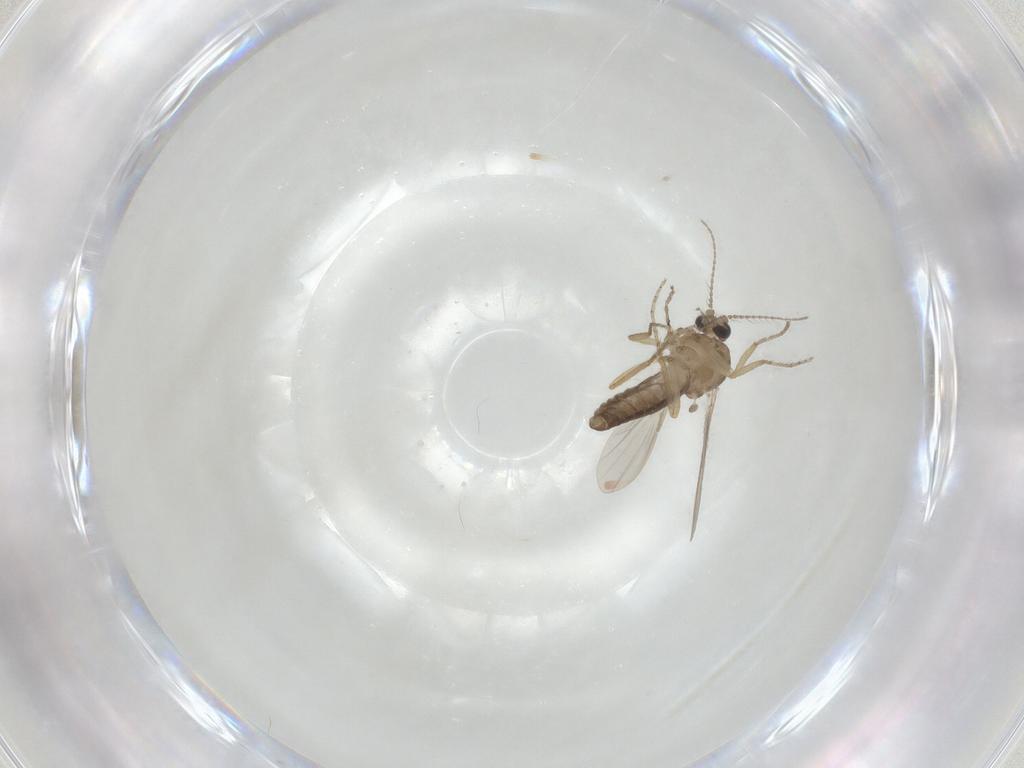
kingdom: Animalia
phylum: Arthropoda
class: Insecta
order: Diptera
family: Ceratopogonidae
